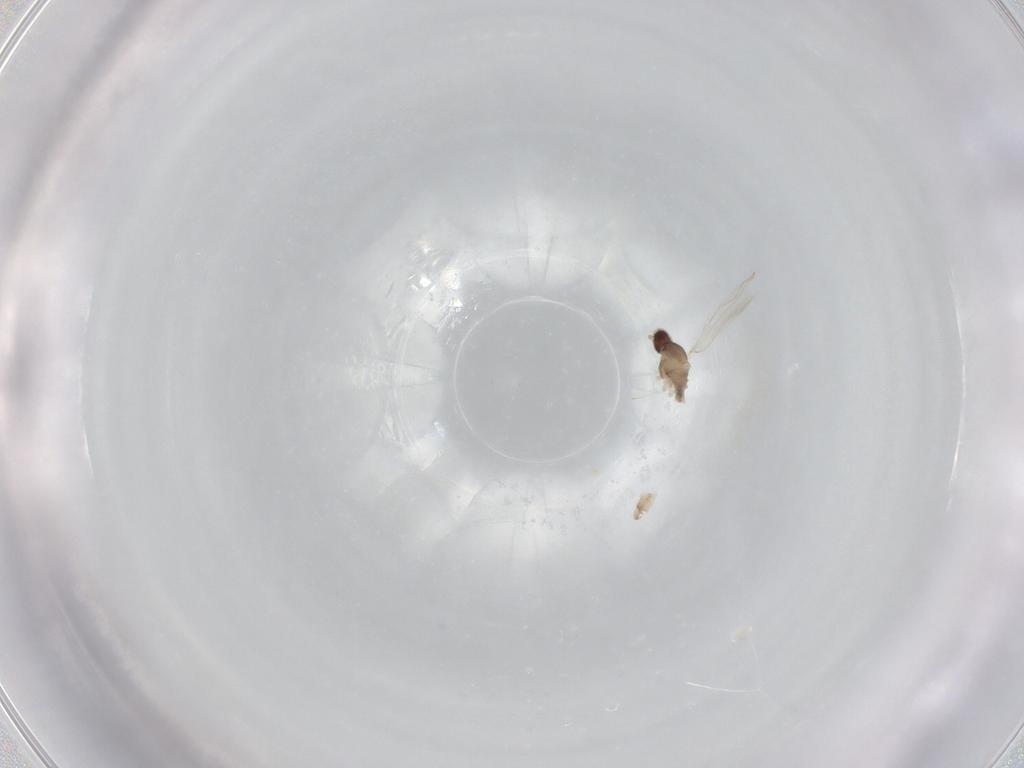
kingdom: Animalia
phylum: Arthropoda
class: Insecta
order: Diptera
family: Cecidomyiidae
